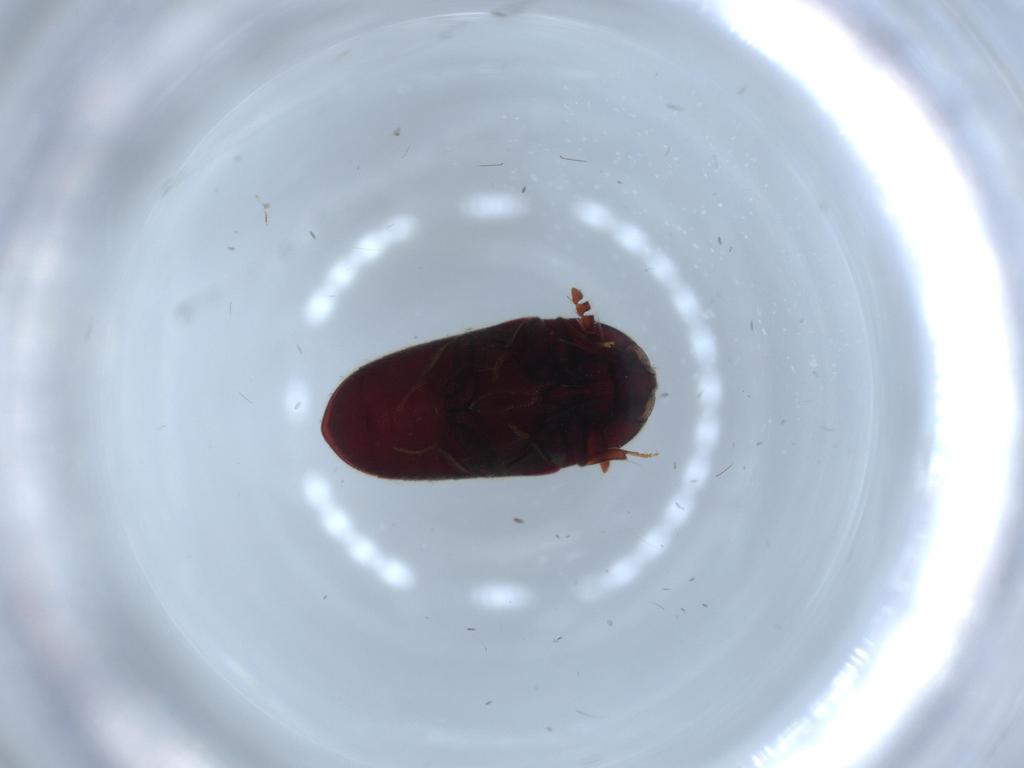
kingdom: Animalia
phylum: Arthropoda
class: Insecta
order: Coleoptera
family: Throscidae
